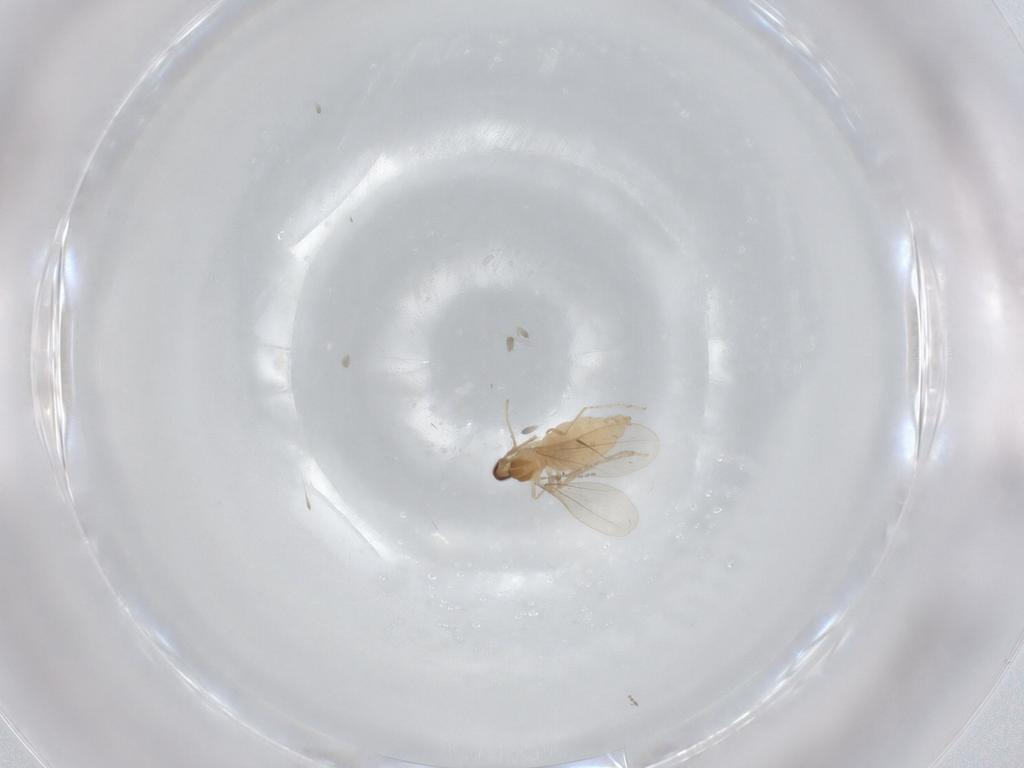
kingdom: Animalia
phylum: Arthropoda
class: Insecta
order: Diptera
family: Cecidomyiidae
